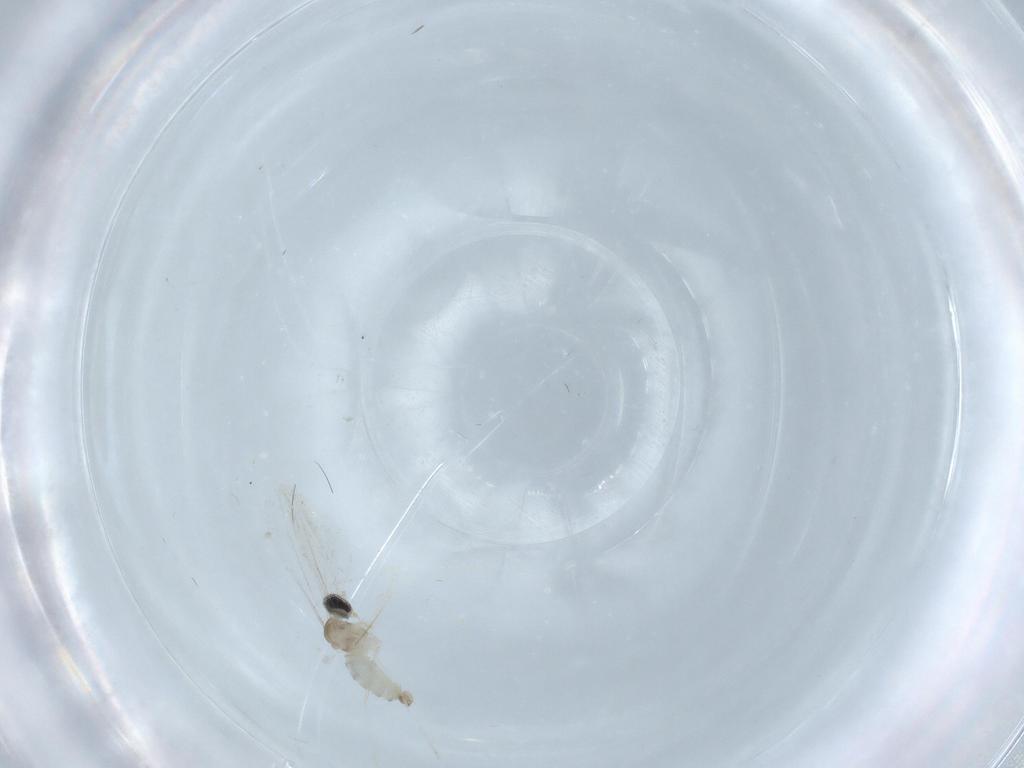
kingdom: Animalia
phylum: Arthropoda
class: Insecta
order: Diptera
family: Cecidomyiidae
